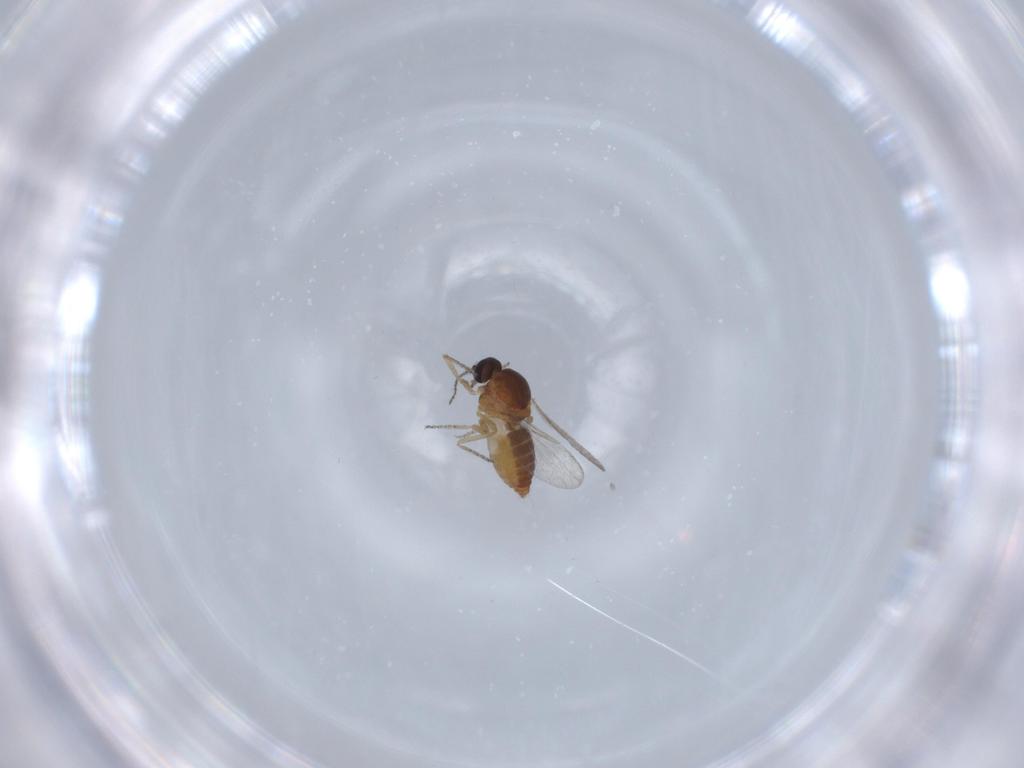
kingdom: Animalia
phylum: Arthropoda
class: Insecta
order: Diptera
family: Ceratopogonidae
